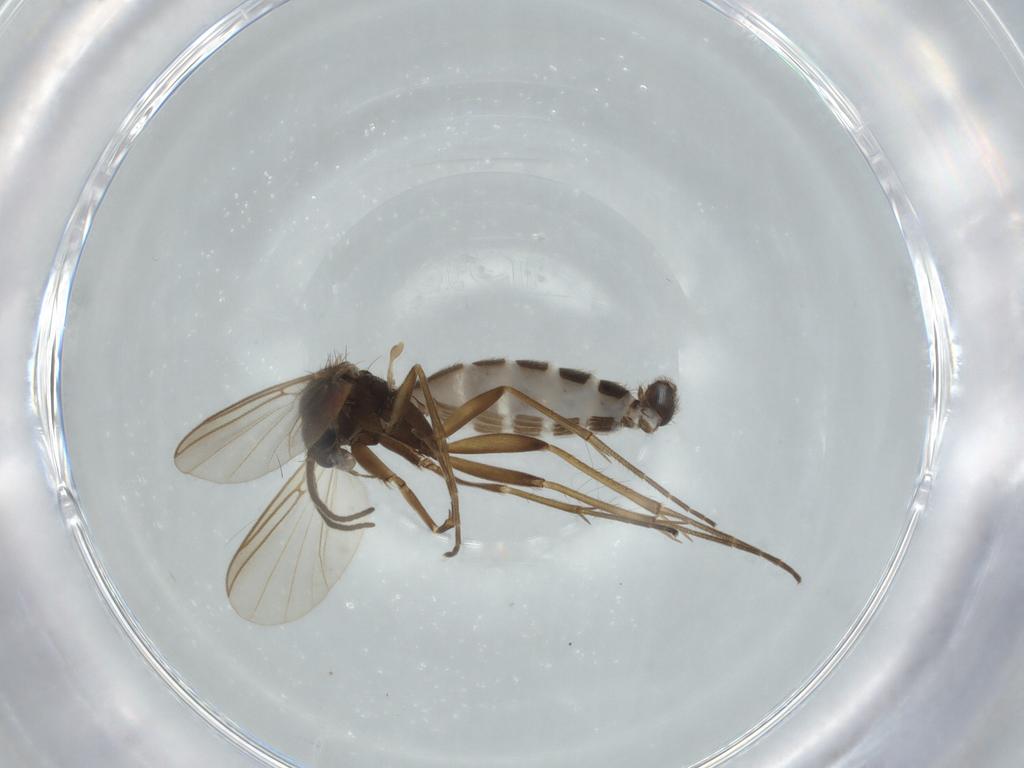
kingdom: Animalia
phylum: Arthropoda
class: Insecta
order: Diptera
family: Mycetophilidae
